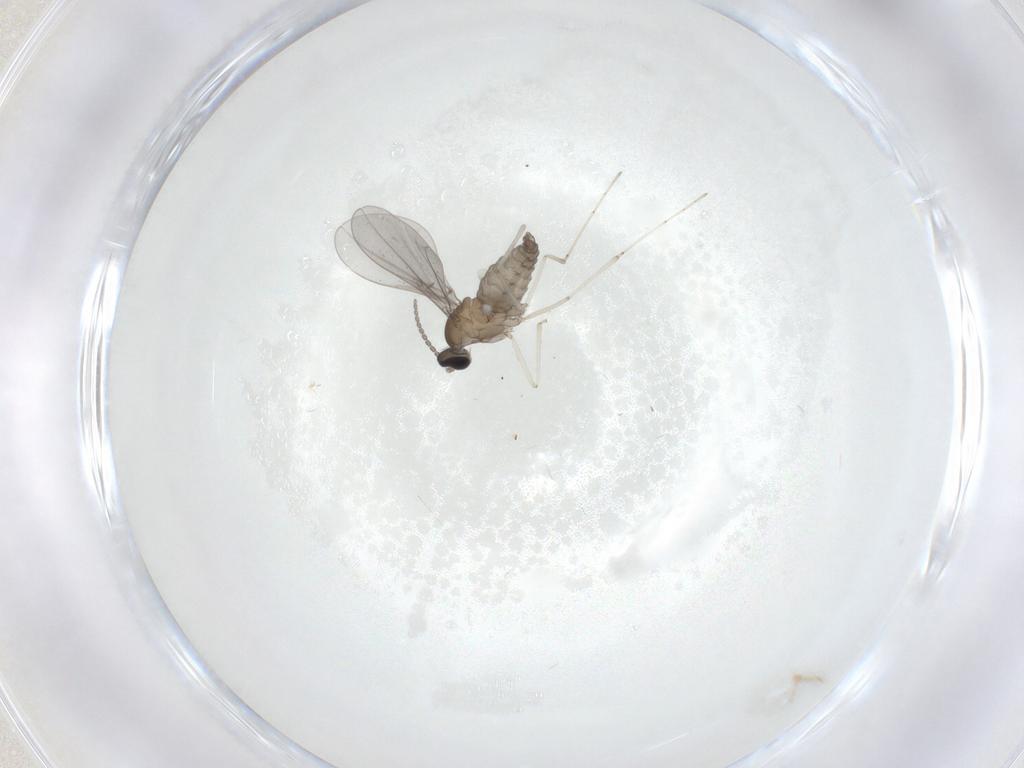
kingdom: Animalia
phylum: Arthropoda
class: Insecta
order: Diptera
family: Cecidomyiidae
